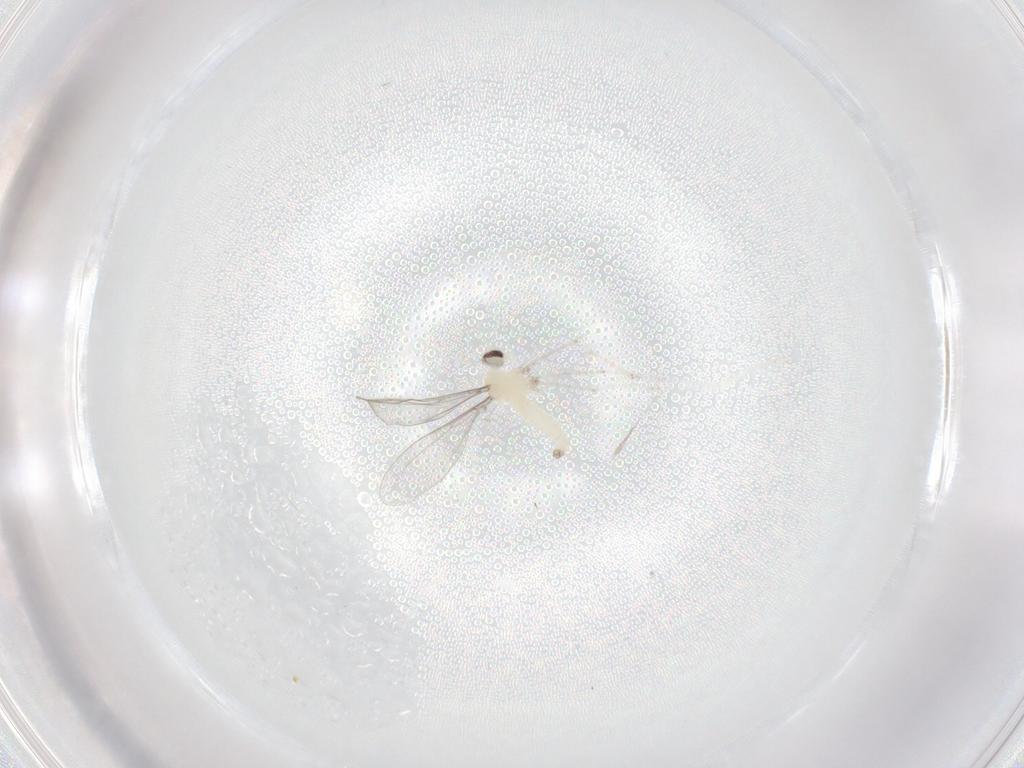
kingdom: Animalia
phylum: Arthropoda
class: Insecta
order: Diptera
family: Cecidomyiidae
